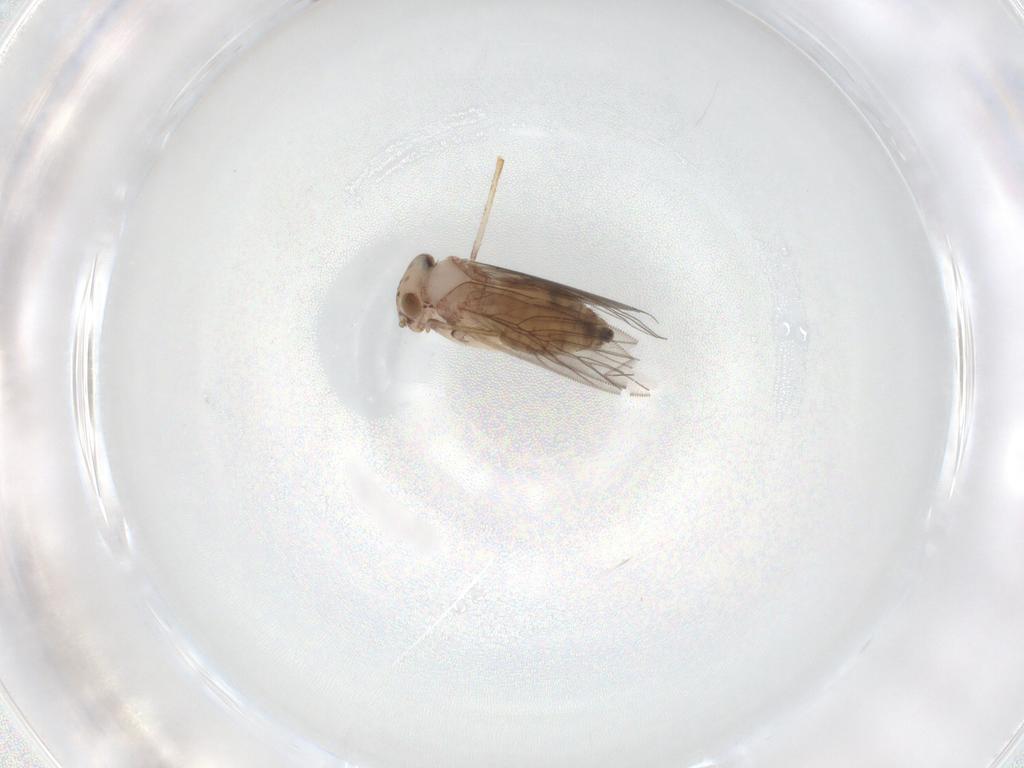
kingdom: Animalia
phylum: Arthropoda
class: Insecta
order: Psocodea
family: Lepidopsocidae
